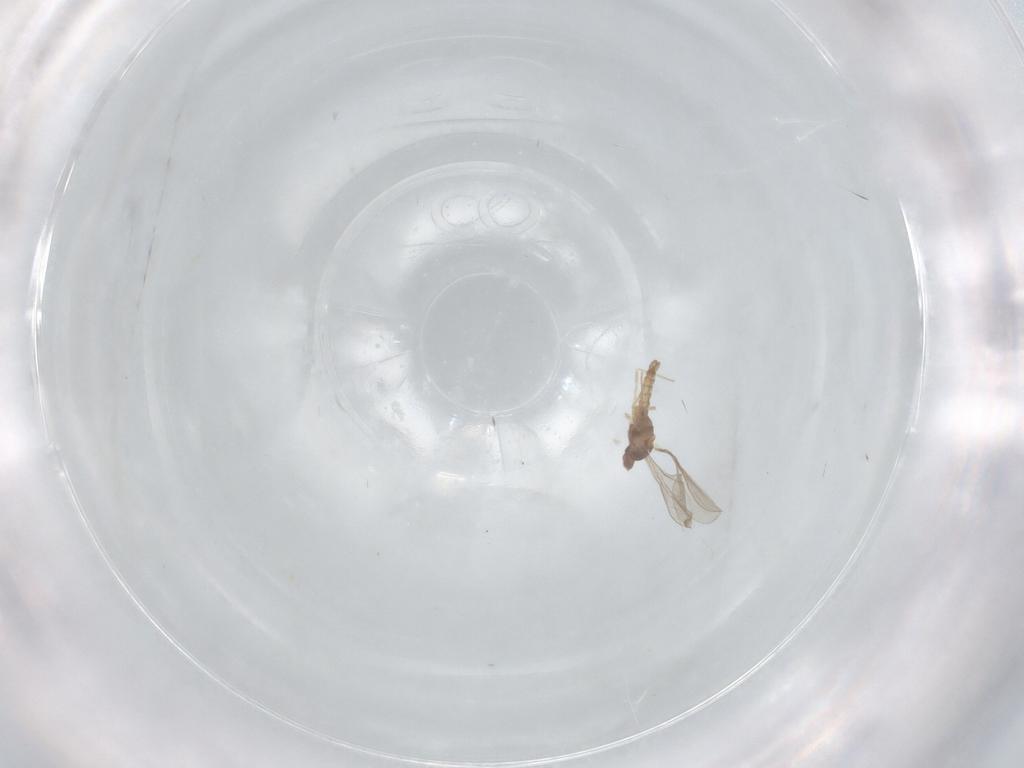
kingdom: Animalia
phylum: Arthropoda
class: Insecta
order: Diptera
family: Cecidomyiidae
